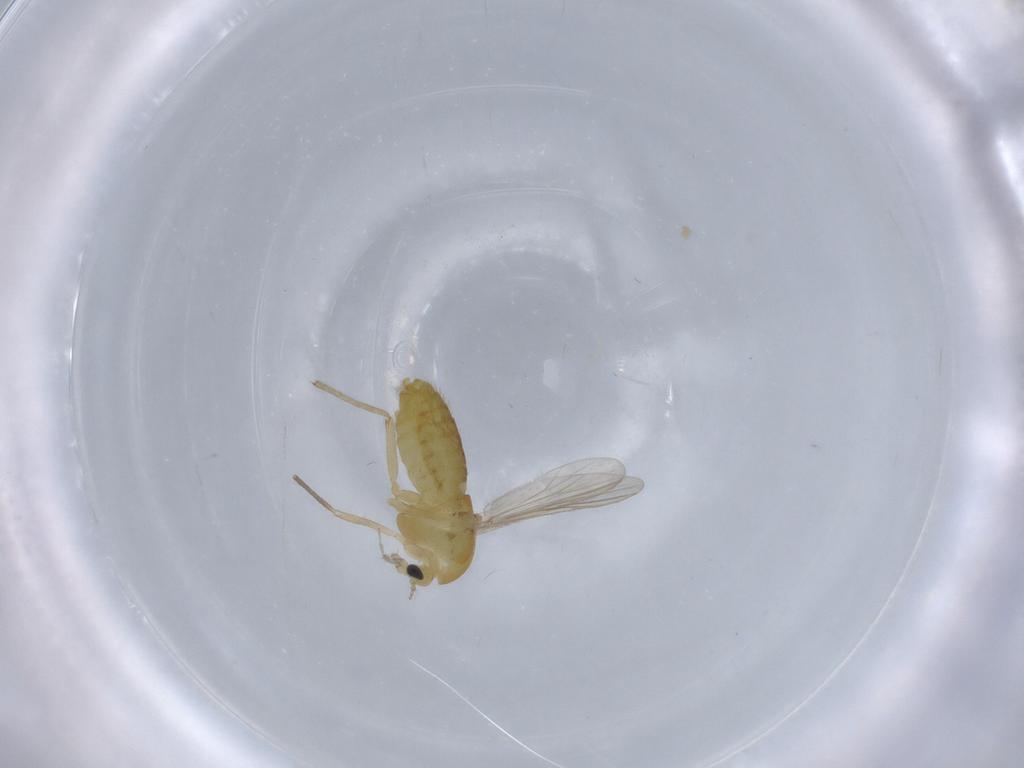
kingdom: Animalia
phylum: Arthropoda
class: Insecta
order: Diptera
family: Chironomidae
